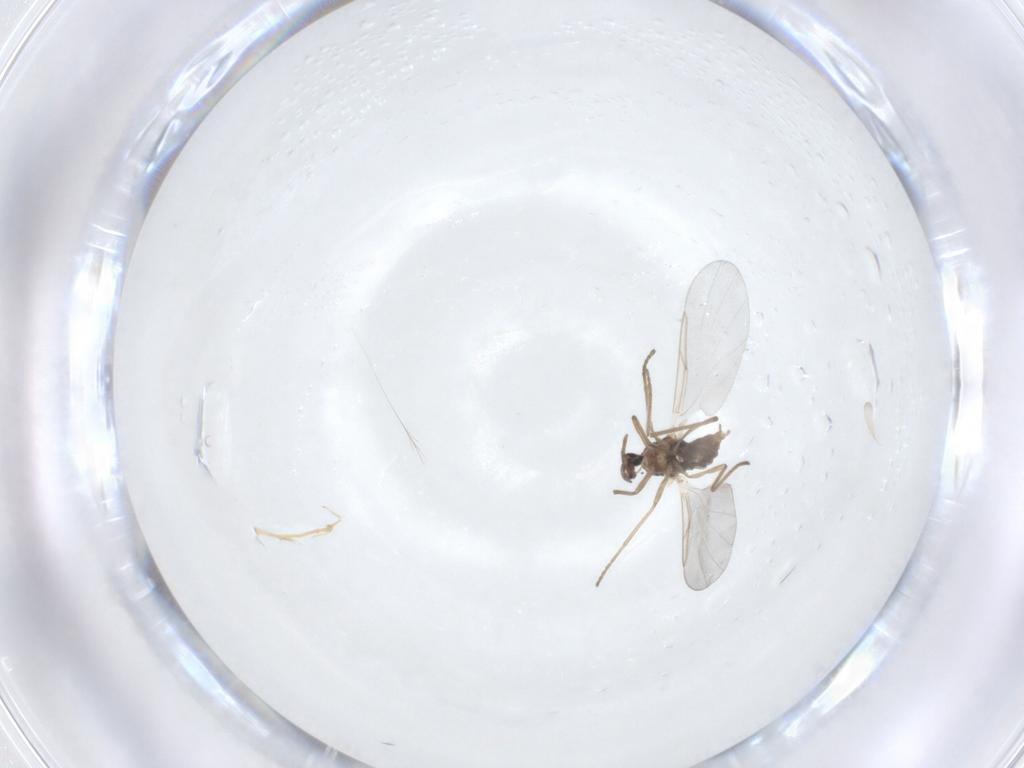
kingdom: Animalia
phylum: Arthropoda
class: Insecta
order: Diptera
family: Cecidomyiidae
